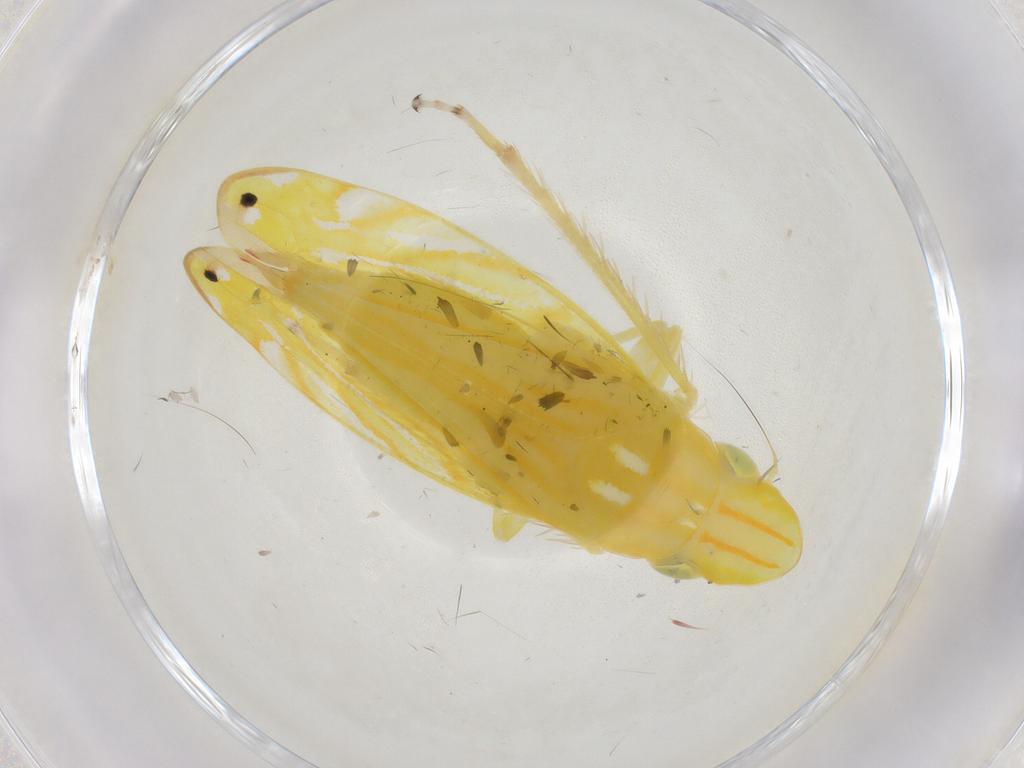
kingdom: Animalia
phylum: Arthropoda
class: Insecta
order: Hemiptera
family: Cicadellidae
